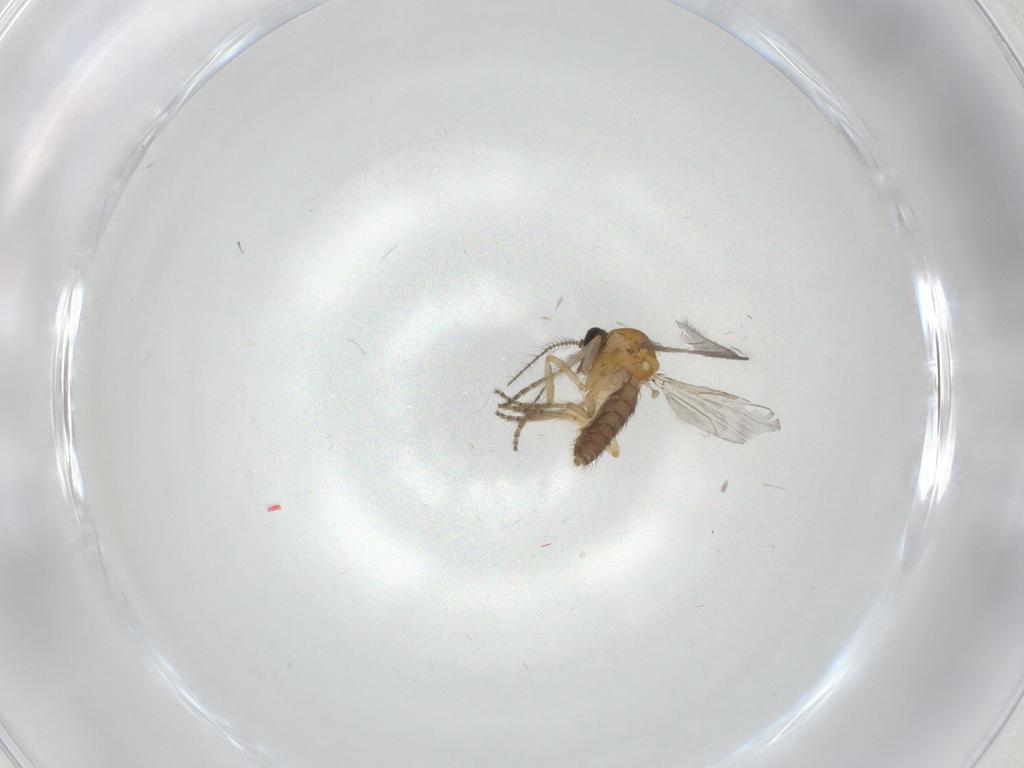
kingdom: Animalia
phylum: Arthropoda
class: Insecta
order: Diptera
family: Ceratopogonidae
